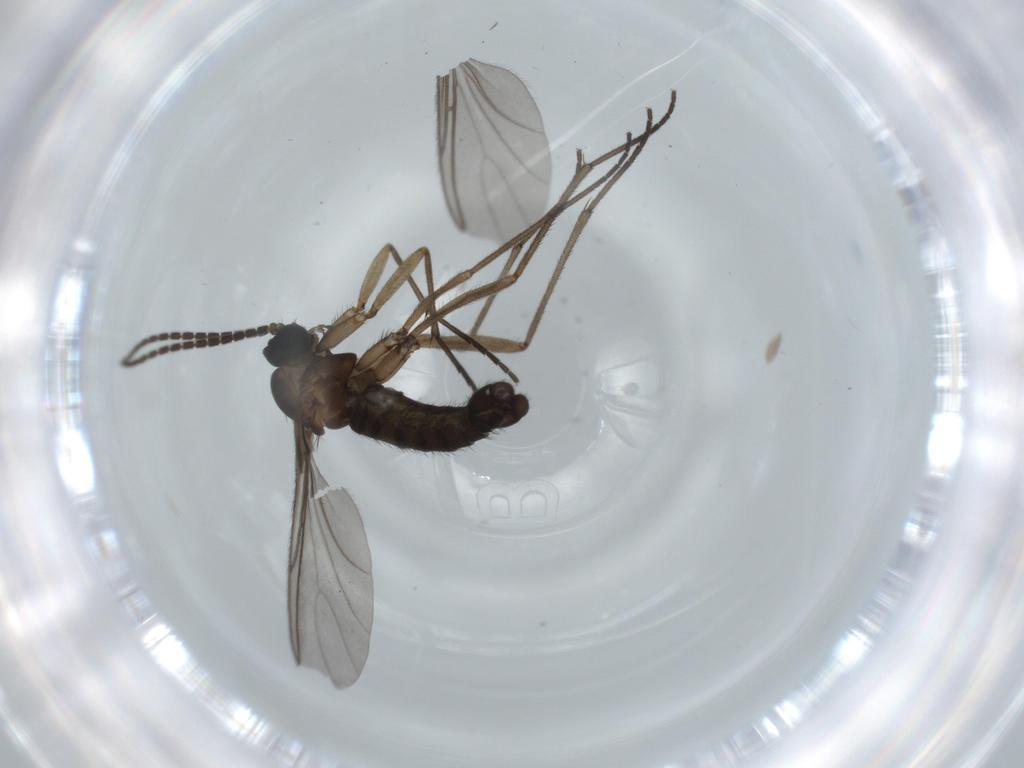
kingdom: Animalia
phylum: Arthropoda
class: Insecta
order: Diptera
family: Sciaridae
